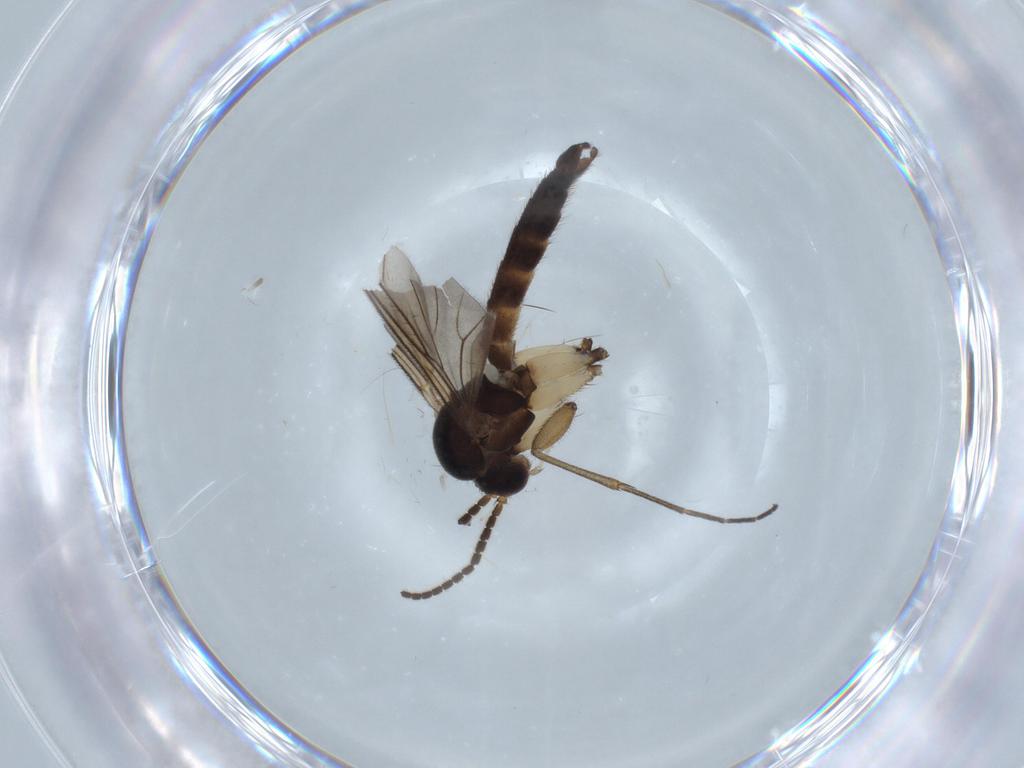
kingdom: Animalia
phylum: Arthropoda
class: Insecta
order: Diptera
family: Mycetophilidae
